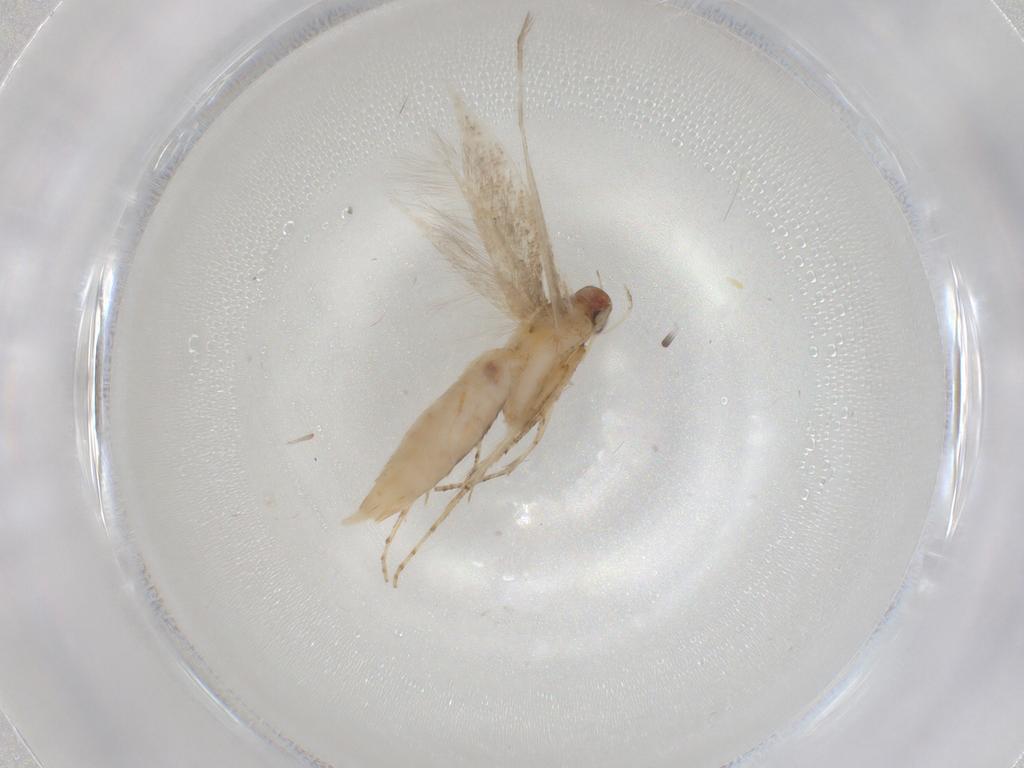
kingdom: Animalia
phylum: Arthropoda
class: Insecta
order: Lepidoptera
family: Elachistidae
